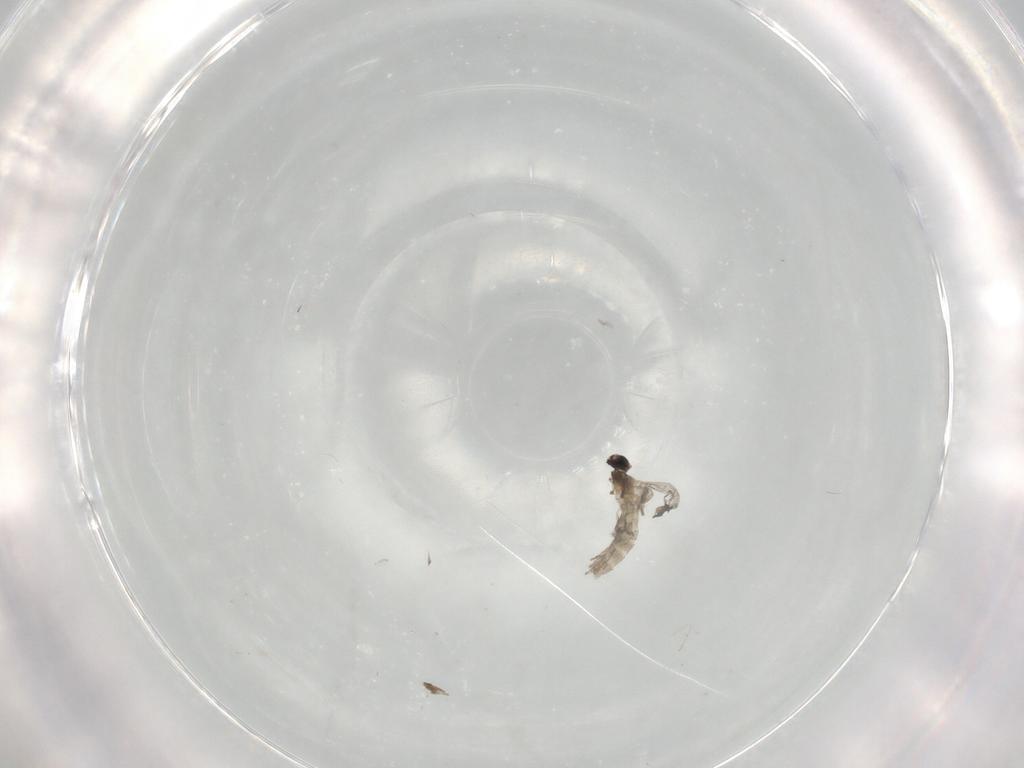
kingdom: Animalia
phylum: Arthropoda
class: Insecta
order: Diptera
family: Cecidomyiidae
